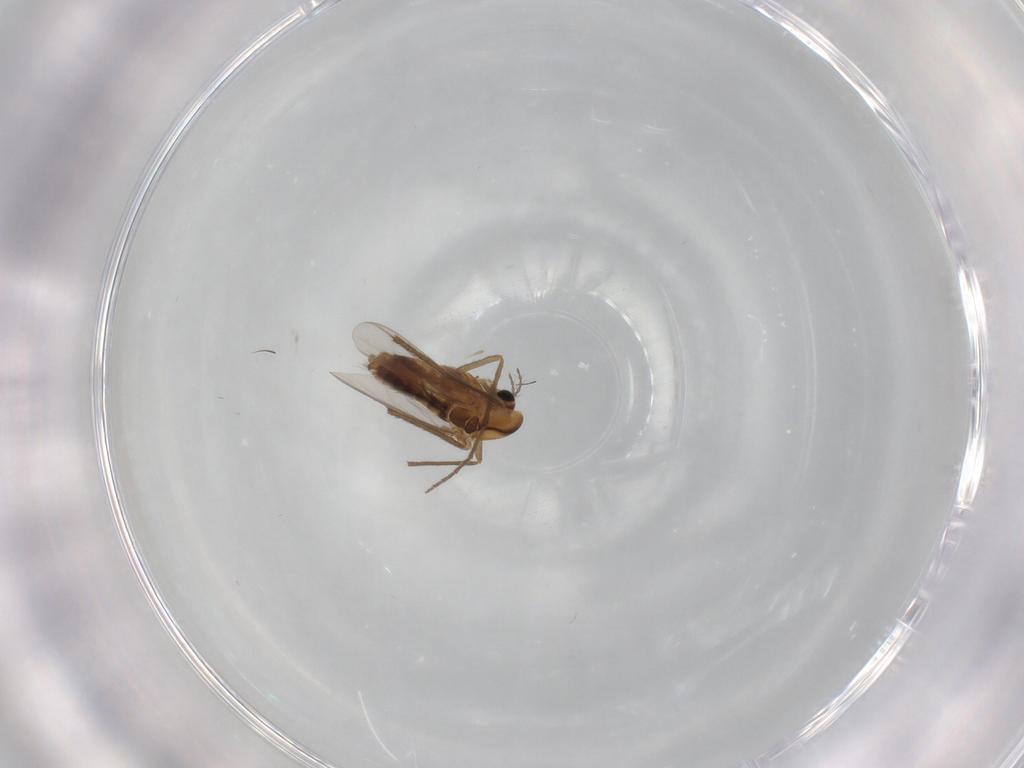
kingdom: Animalia
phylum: Arthropoda
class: Insecta
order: Diptera
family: Chironomidae
